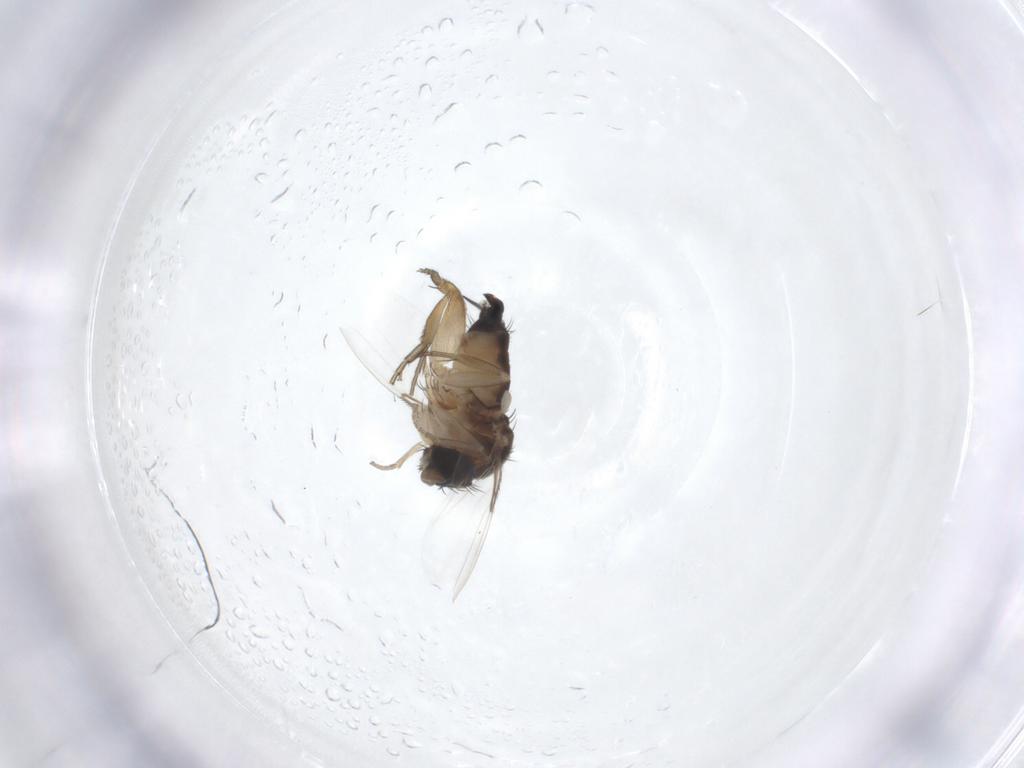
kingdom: Animalia
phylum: Arthropoda
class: Insecta
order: Diptera
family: Phoridae
